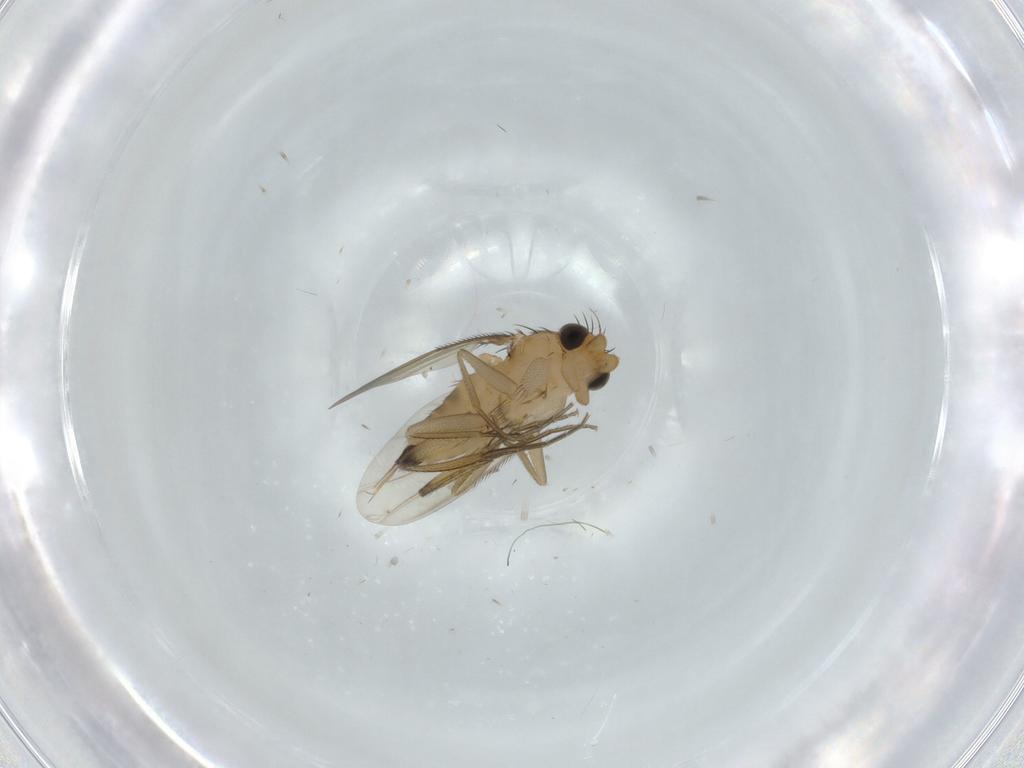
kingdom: Animalia
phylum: Arthropoda
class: Insecta
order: Diptera
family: Phoridae
